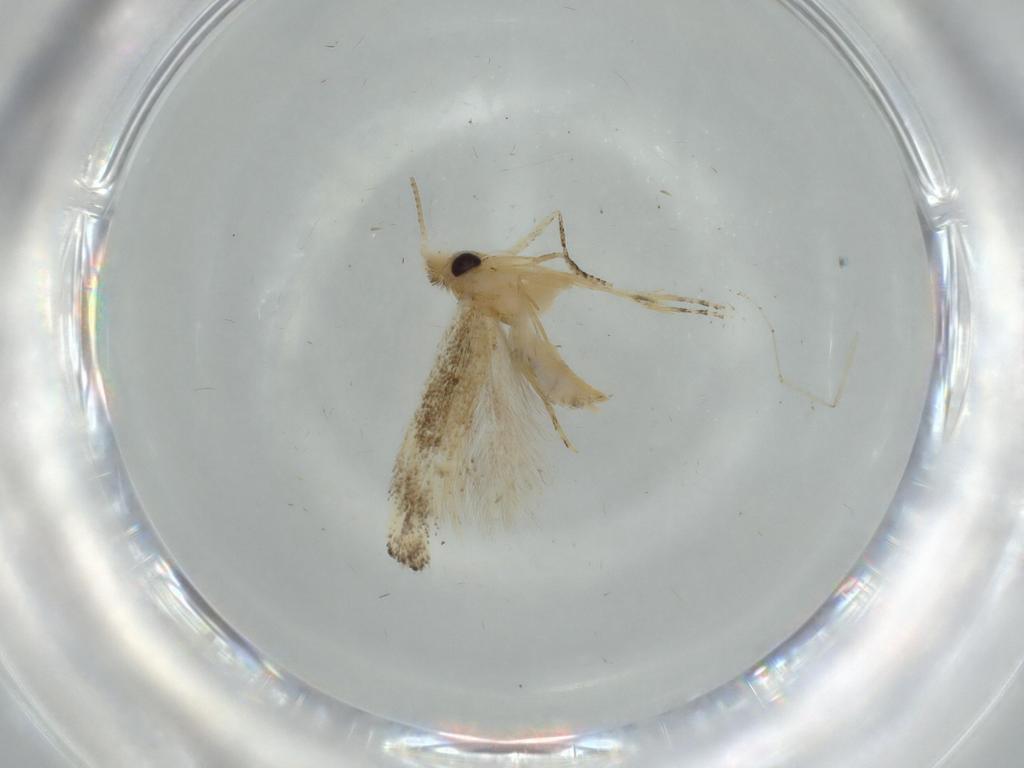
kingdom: Animalia
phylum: Arthropoda
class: Insecta
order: Lepidoptera
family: Bucculatricidae
